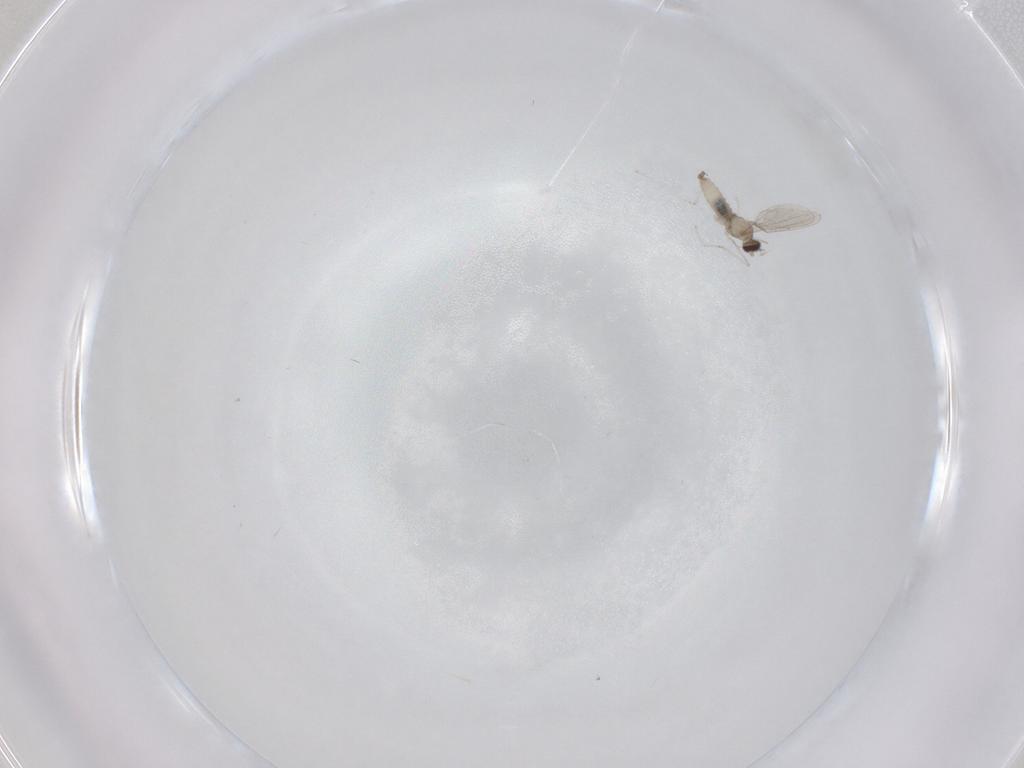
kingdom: Animalia
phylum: Arthropoda
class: Insecta
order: Diptera
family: Cecidomyiidae
